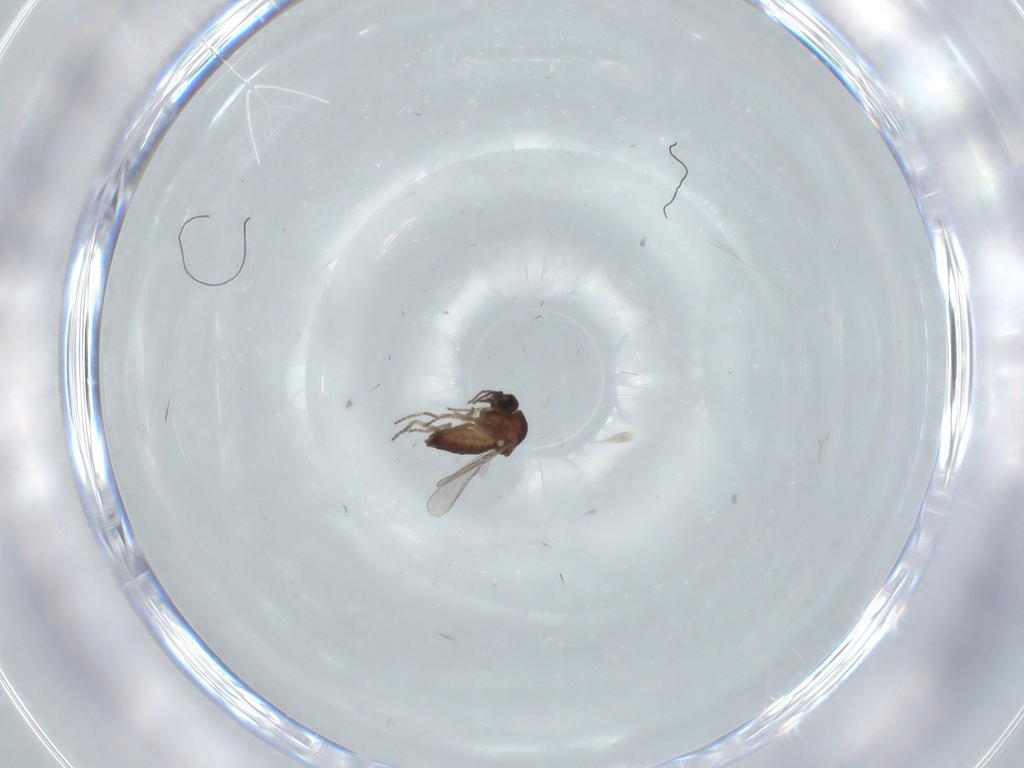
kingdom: Animalia
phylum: Arthropoda
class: Insecta
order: Diptera
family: Ceratopogonidae
